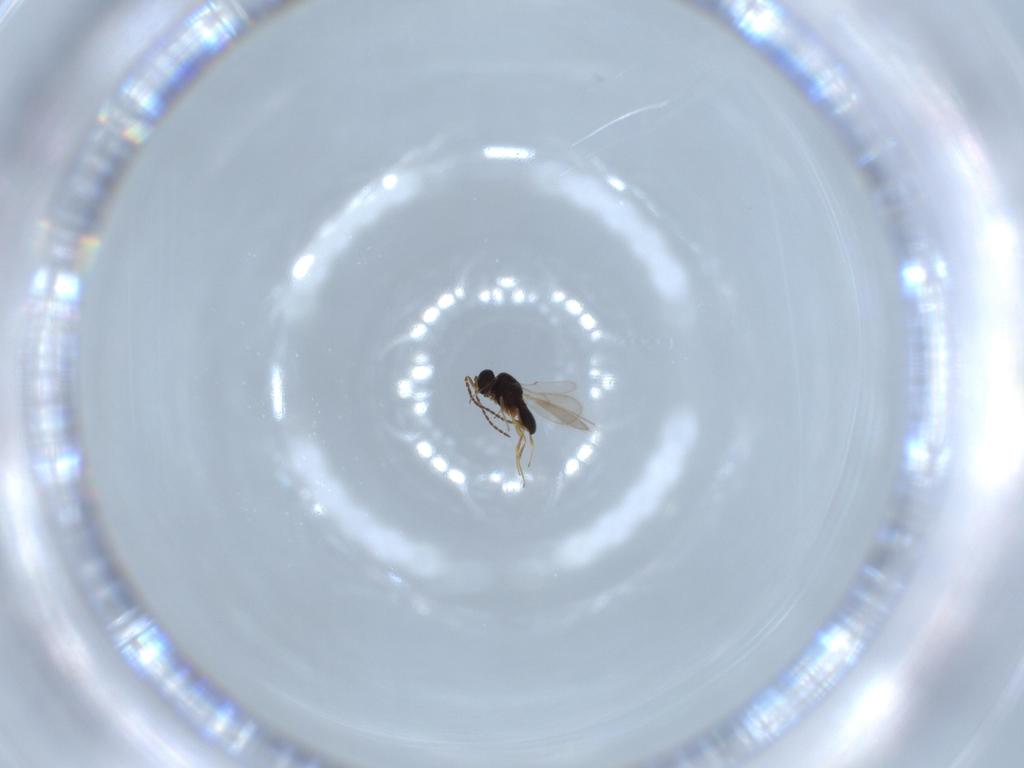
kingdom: Animalia
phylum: Arthropoda
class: Insecta
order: Hymenoptera
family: Scelionidae
